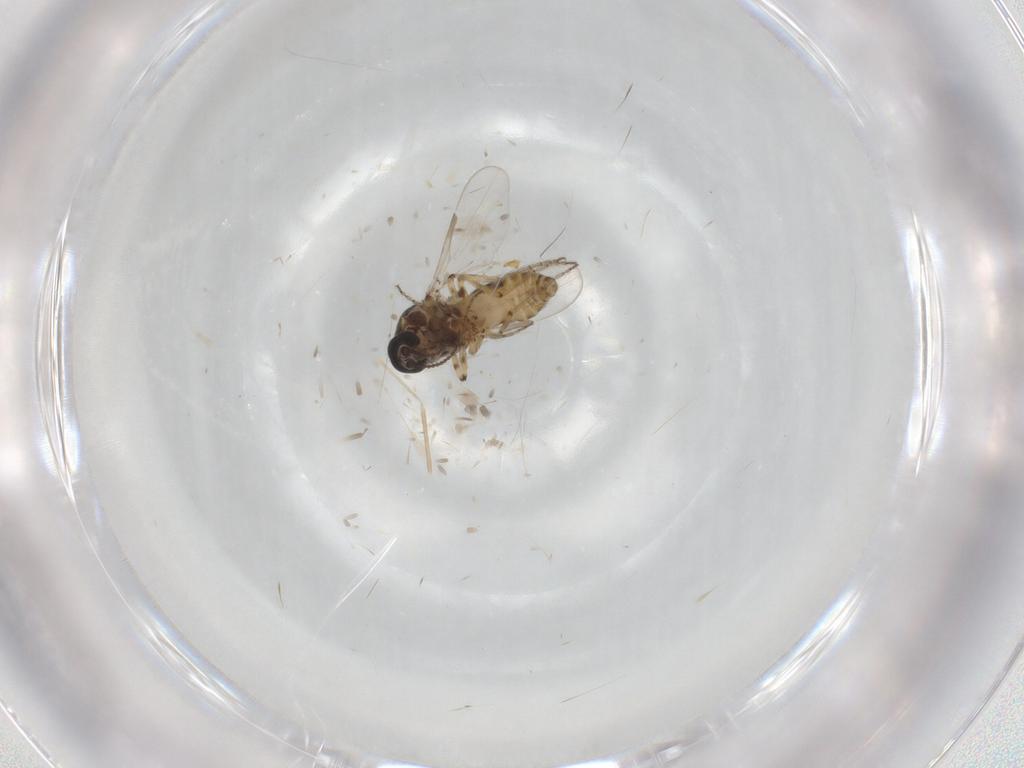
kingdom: Animalia
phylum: Arthropoda
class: Insecta
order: Diptera
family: Ceratopogonidae
